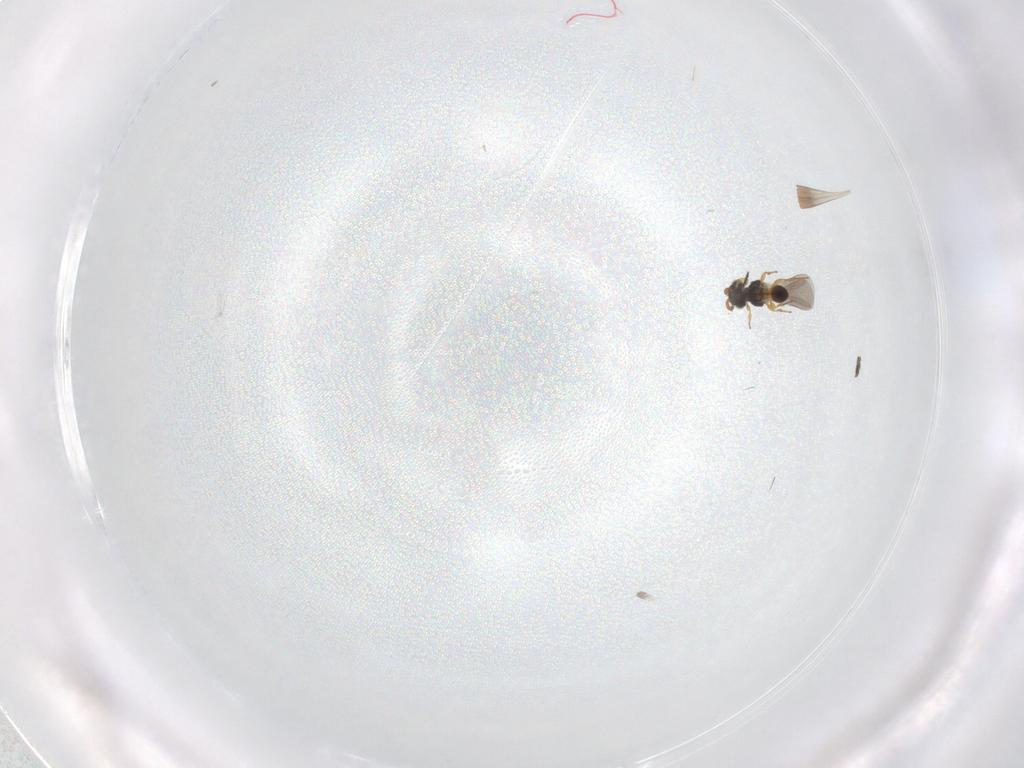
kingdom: Animalia
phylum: Arthropoda
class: Insecta
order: Hymenoptera
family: Platygastridae
